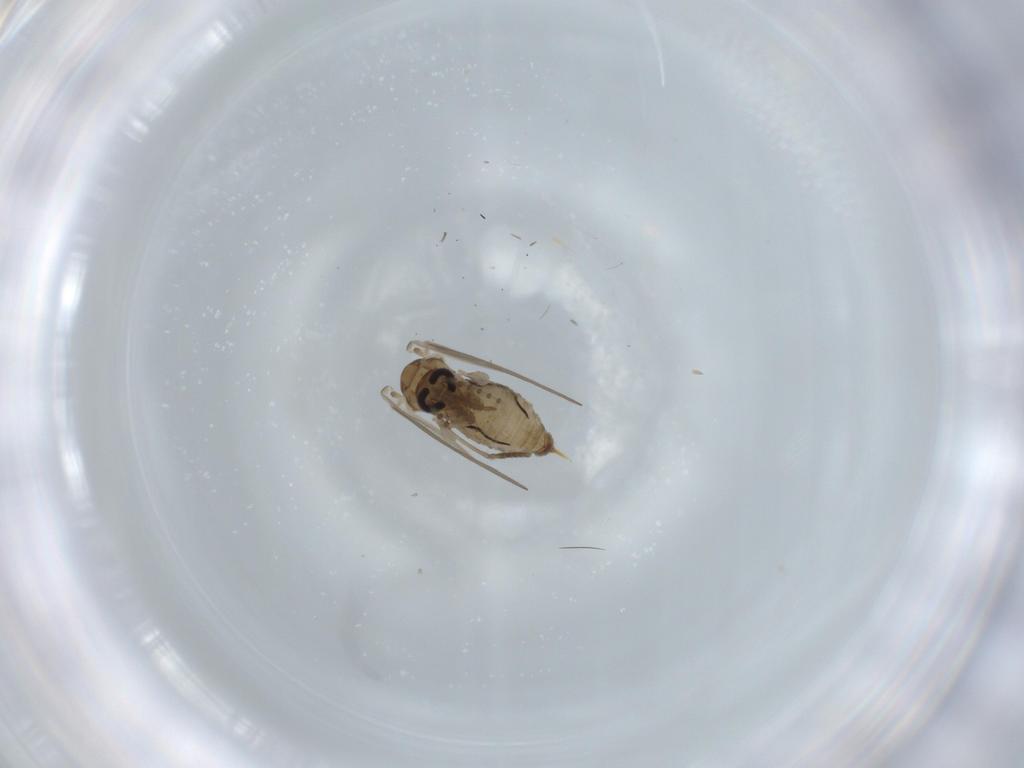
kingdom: Animalia
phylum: Arthropoda
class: Insecta
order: Diptera
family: Psychodidae
